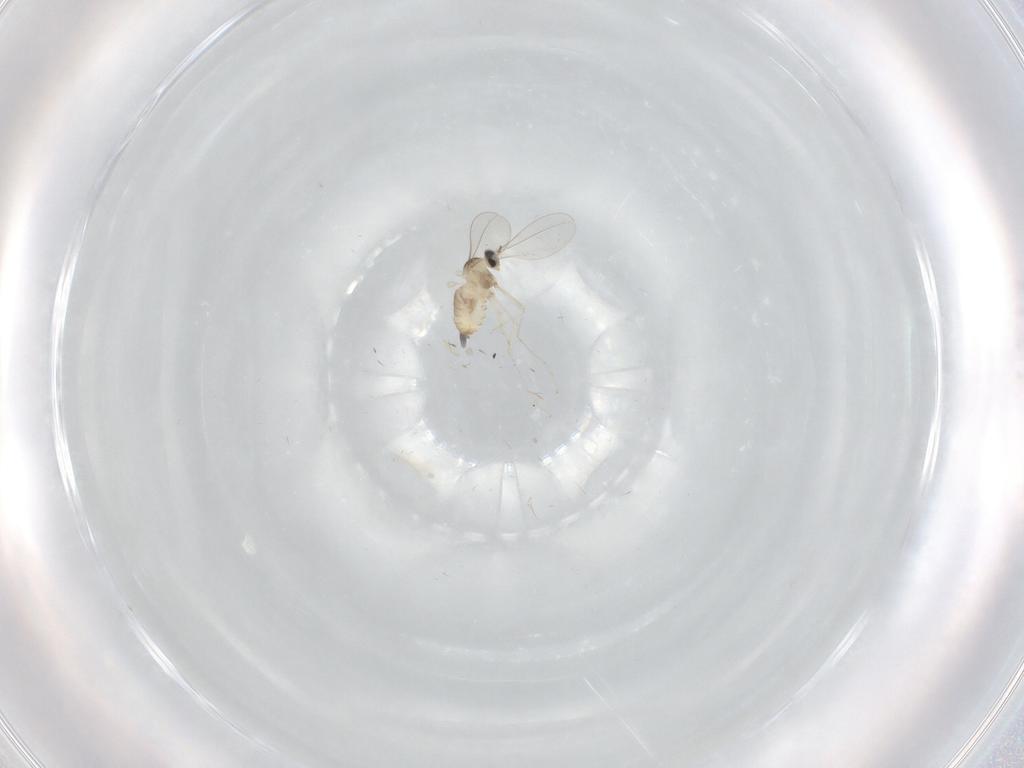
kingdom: Animalia
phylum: Arthropoda
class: Insecta
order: Diptera
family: Cecidomyiidae
